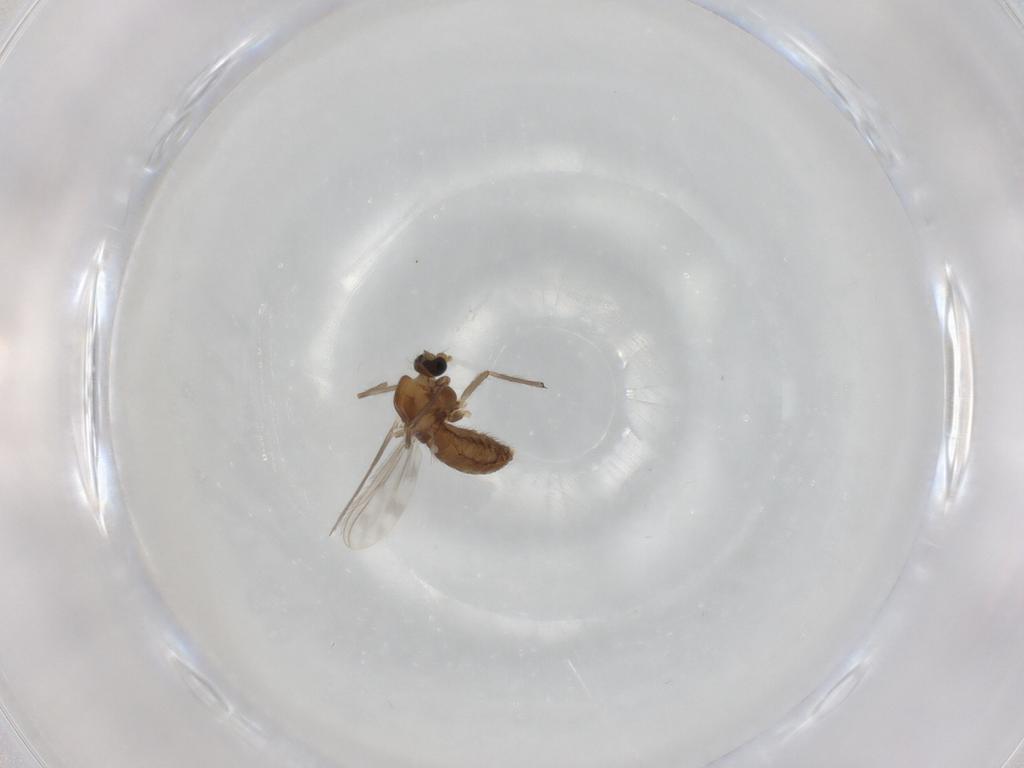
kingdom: Animalia
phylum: Arthropoda
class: Insecta
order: Diptera
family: Chironomidae
